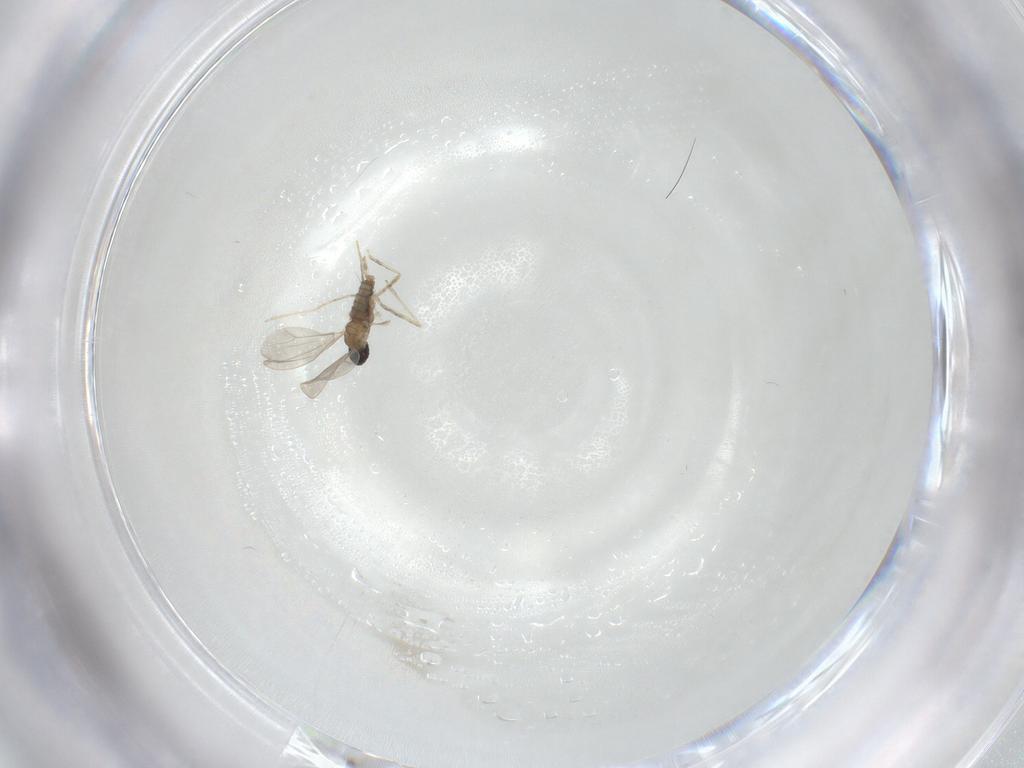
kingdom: Animalia
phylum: Arthropoda
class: Insecta
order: Diptera
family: Cecidomyiidae
